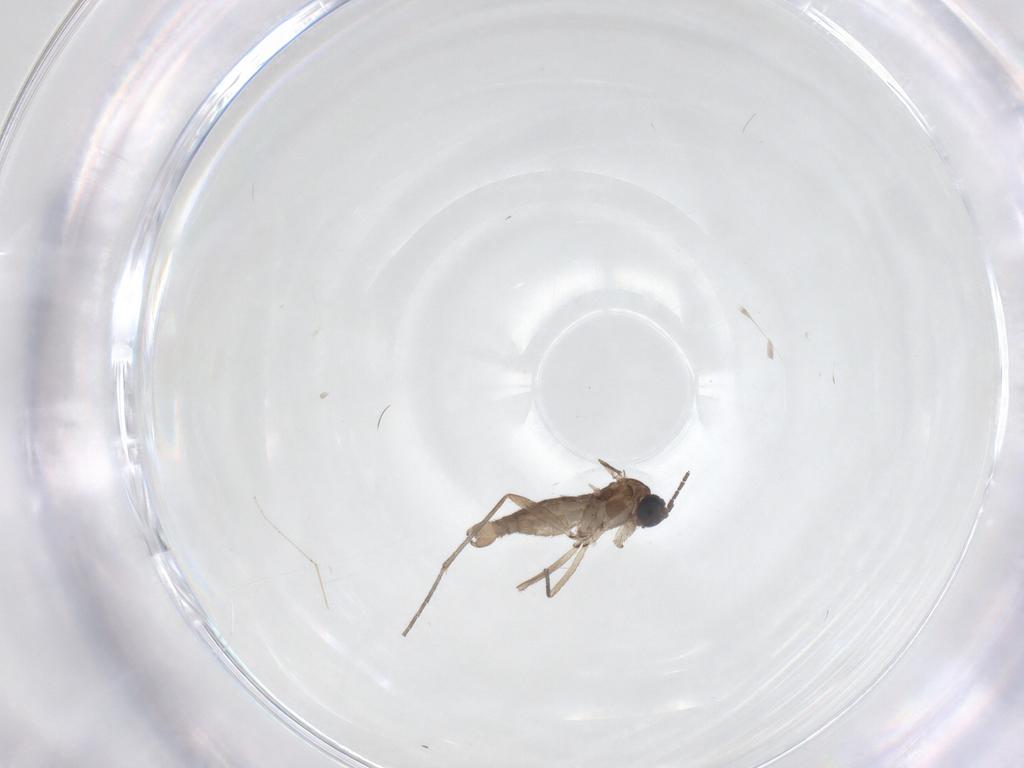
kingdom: Animalia
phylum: Arthropoda
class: Insecta
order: Diptera
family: Sciaridae
